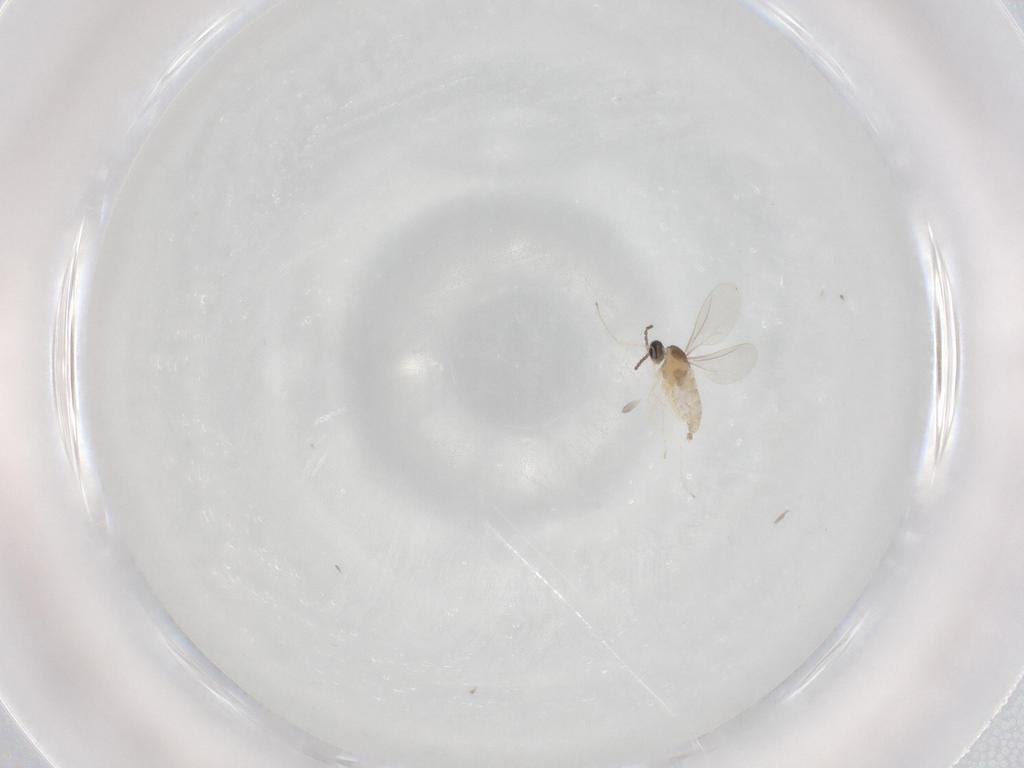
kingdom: Animalia
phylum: Arthropoda
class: Insecta
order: Diptera
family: Cecidomyiidae
